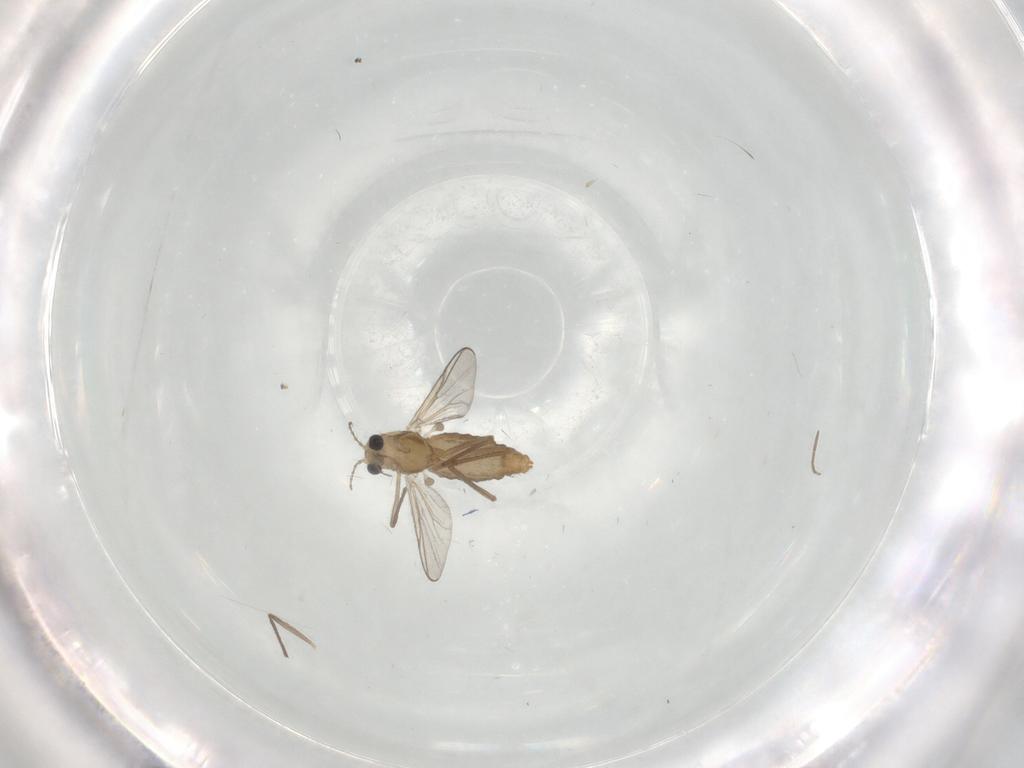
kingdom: Animalia
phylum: Arthropoda
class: Insecta
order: Diptera
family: Chironomidae
